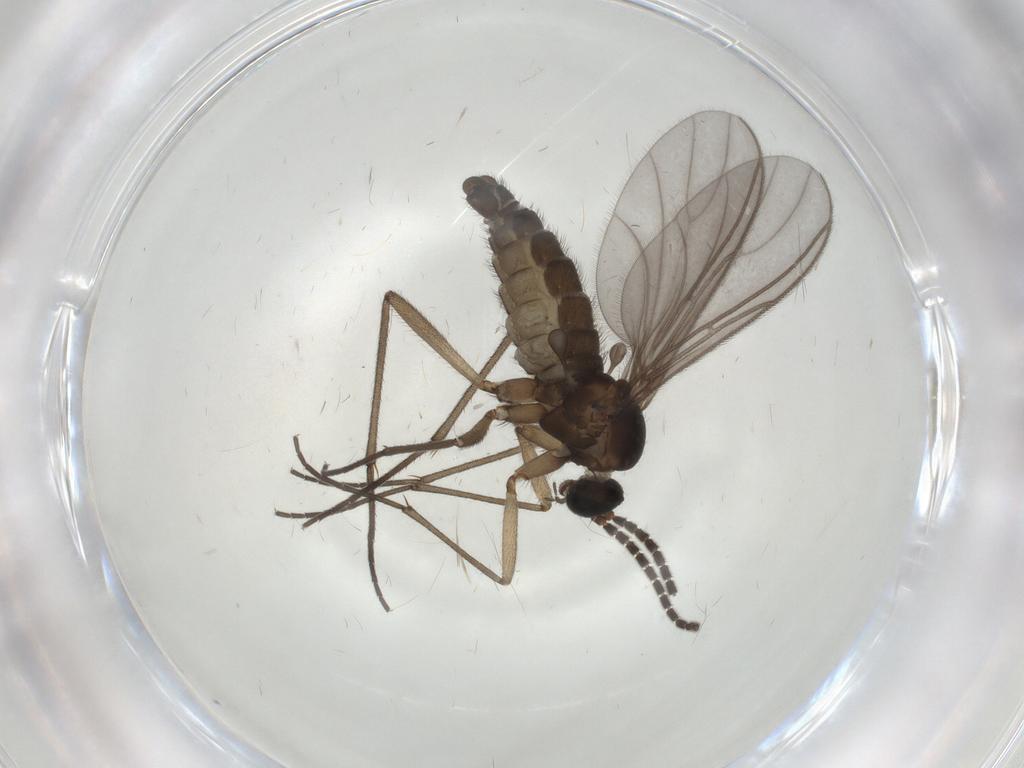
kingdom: Animalia
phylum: Arthropoda
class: Insecta
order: Diptera
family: Sciaridae
